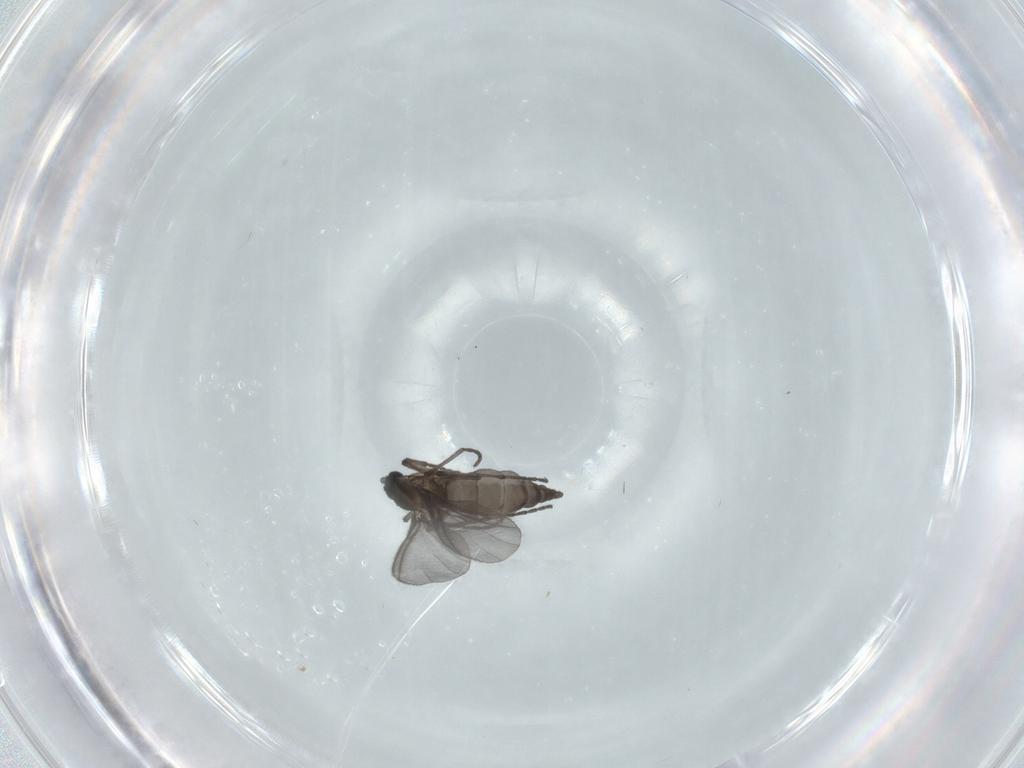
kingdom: Animalia
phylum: Arthropoda
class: Insecta
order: Diptera
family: Sciaridae
